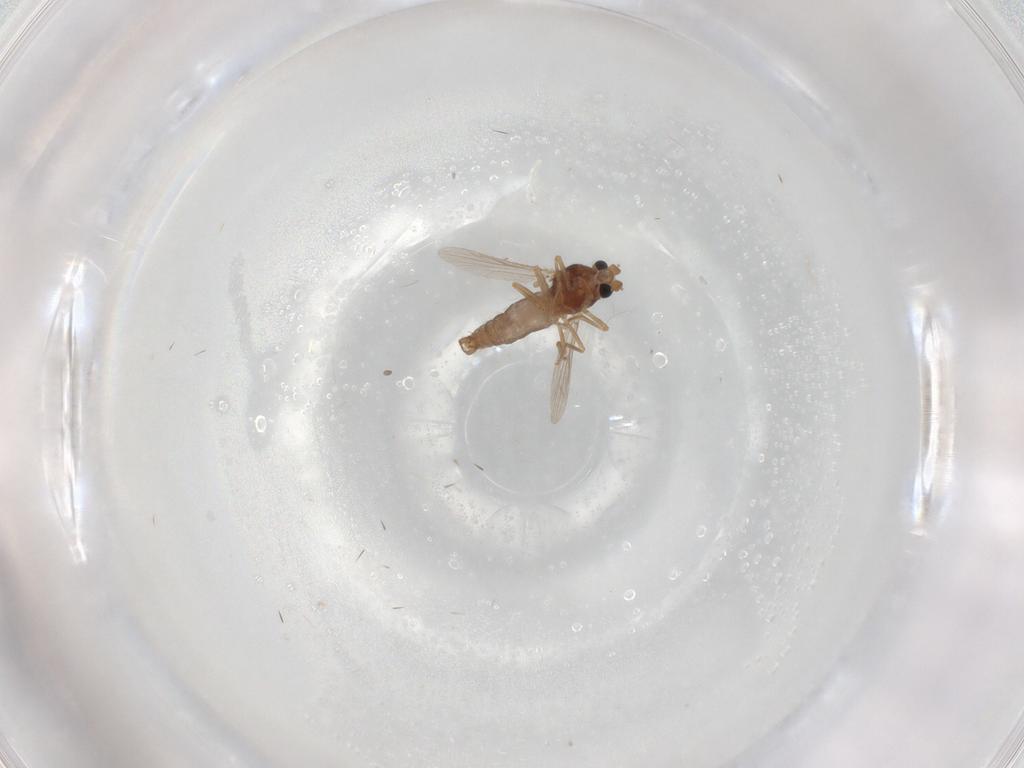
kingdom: Animalia
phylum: Arthropoda
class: Insecta
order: Diptera
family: Ceratopogonidae
